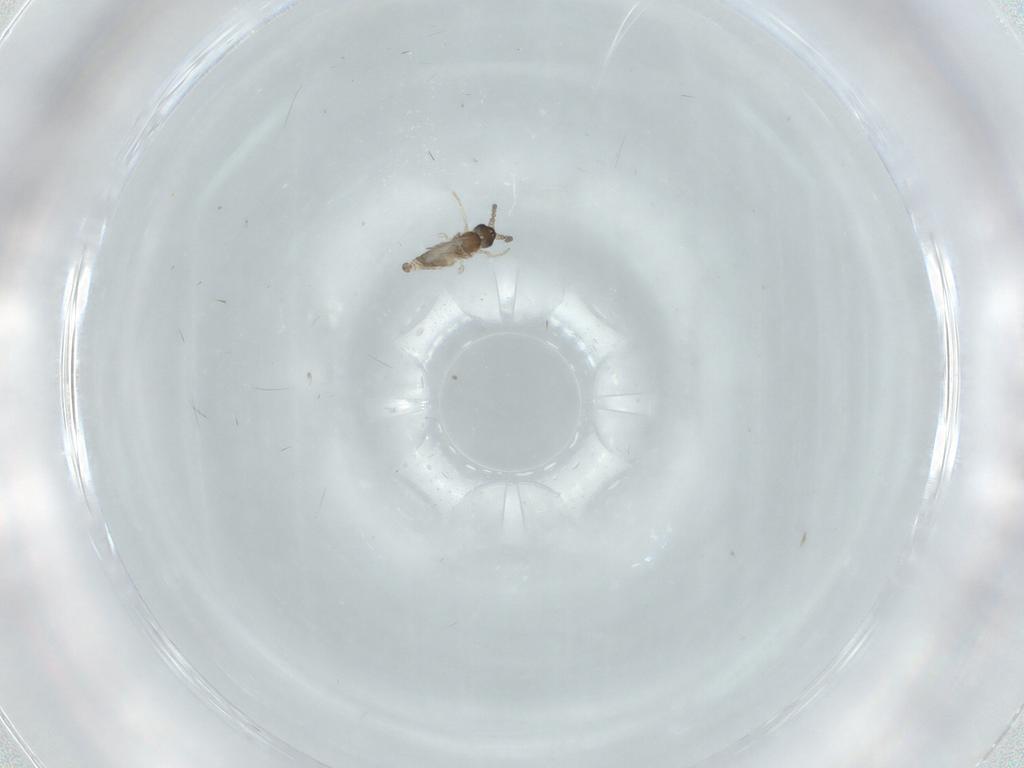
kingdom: Animalia
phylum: Arthropoda
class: Insecta
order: Diptera
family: Cecidomyiidae
